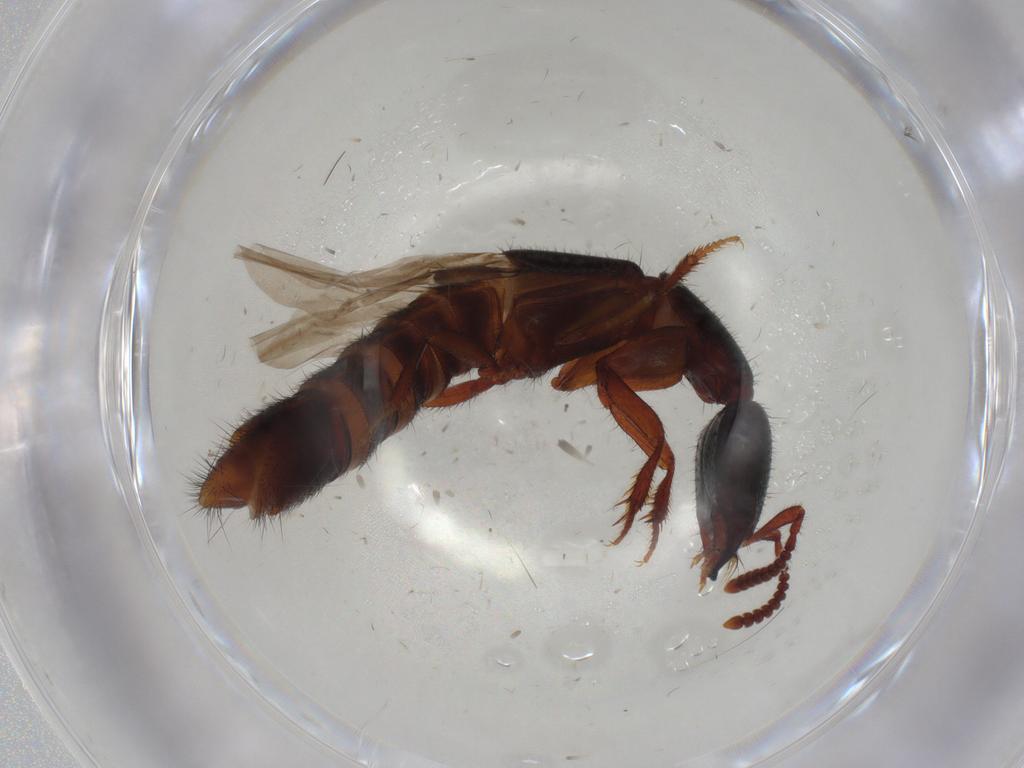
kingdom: Animalia
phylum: Arthropoda
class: Insecta
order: Coleoptera
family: Staphylinidae
